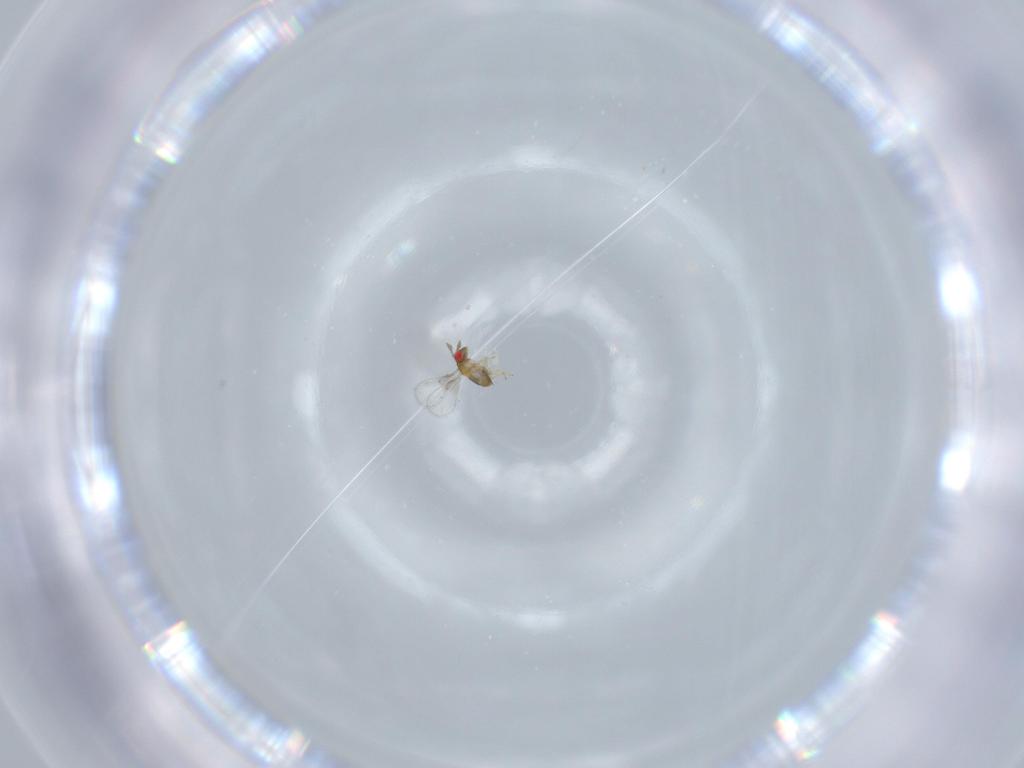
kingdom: Animalia
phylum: Arthropoda
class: Insecta
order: Hymenoptera
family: Trichogrammatidae
